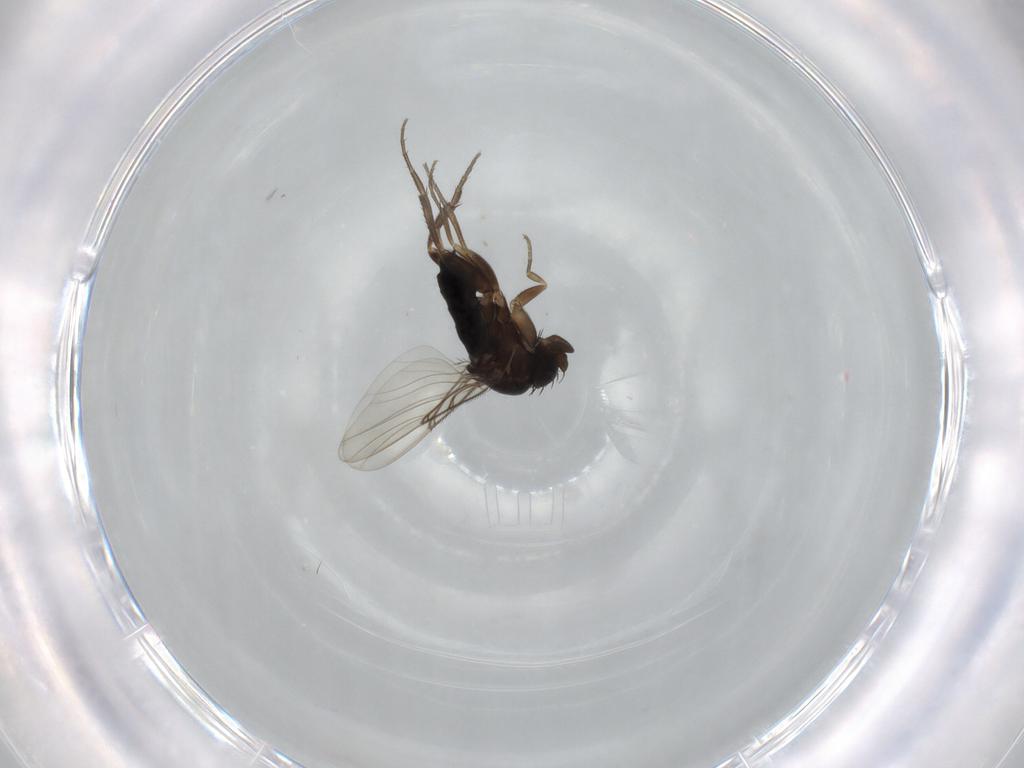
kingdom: Animalia
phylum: Arthropoda
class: Insecta
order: Diptera
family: Phoridae
